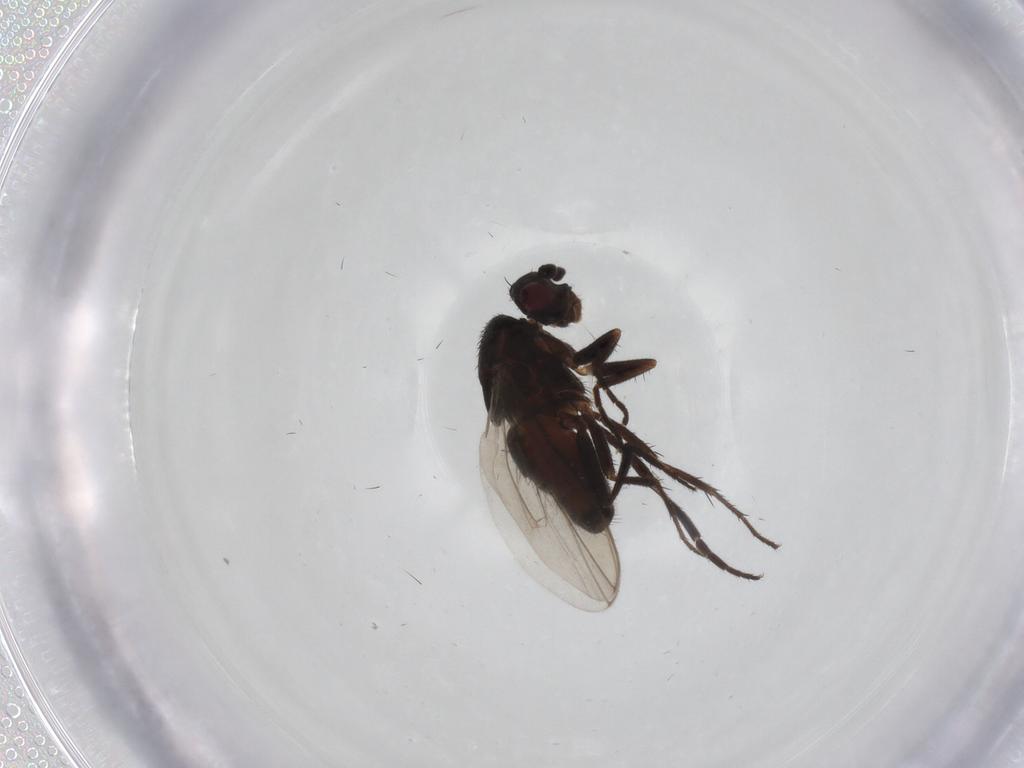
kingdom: Animalia
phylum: Arthropoda
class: Insecta
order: Diptera
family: Sphaeroceridae
